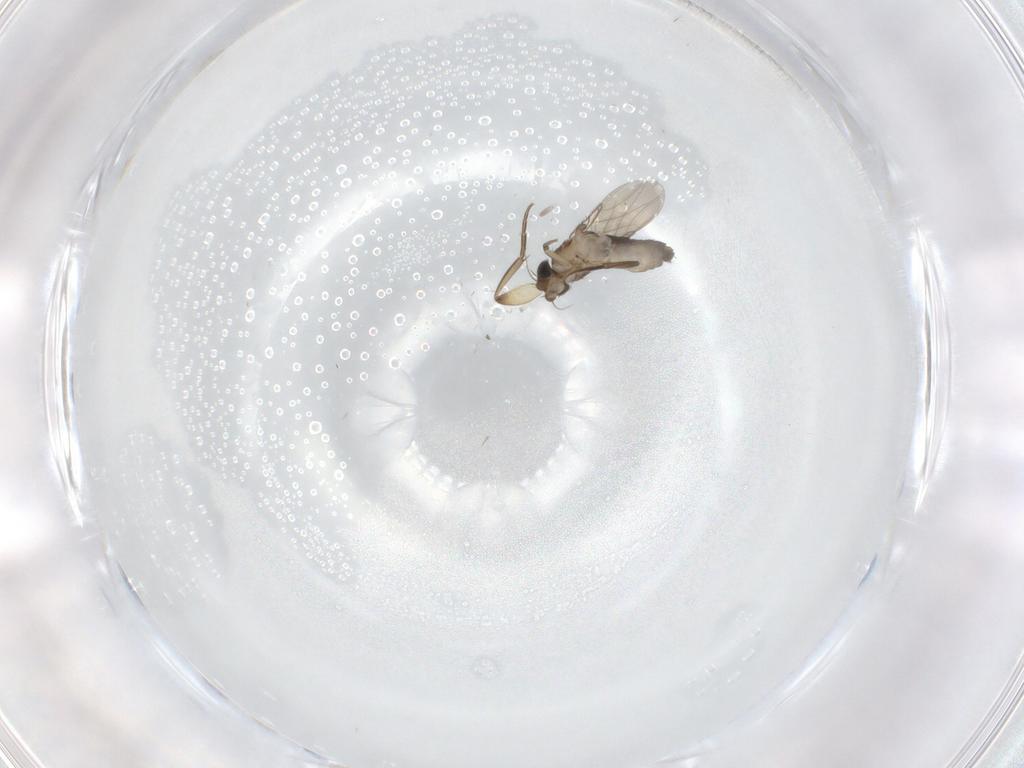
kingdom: Animalia
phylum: Arthropoda
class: Insecta
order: Diptera
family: Phoridae
